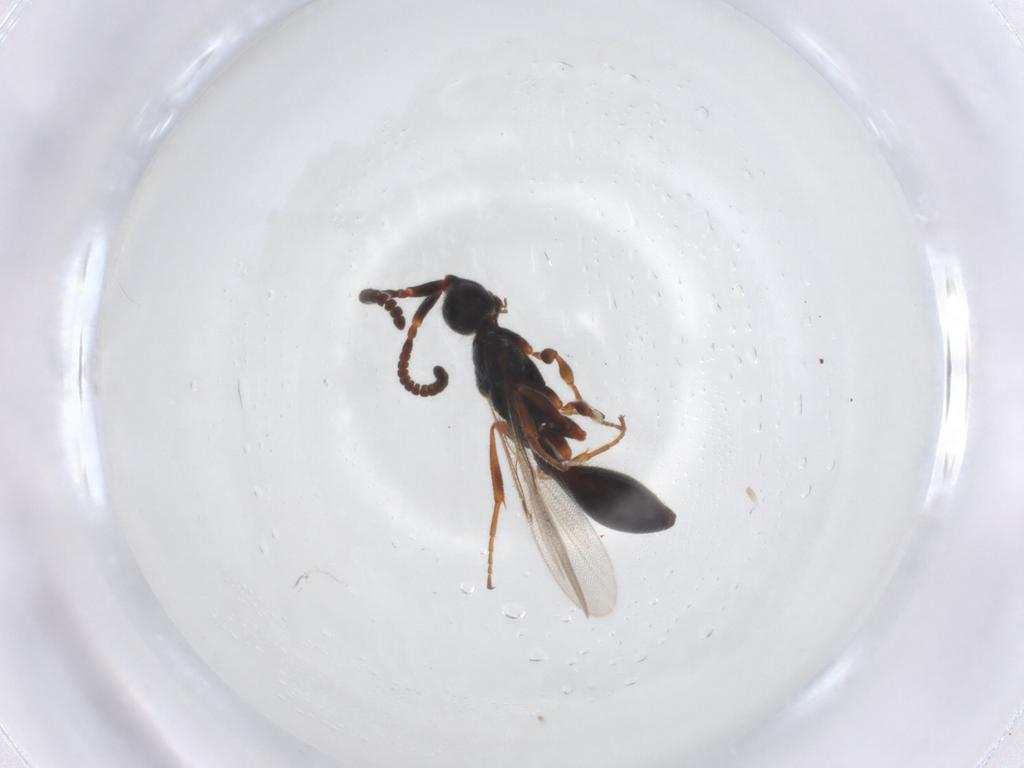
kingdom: Animalia
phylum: Arthropoda
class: Insecta
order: Hymenoptera
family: Diapriidae
